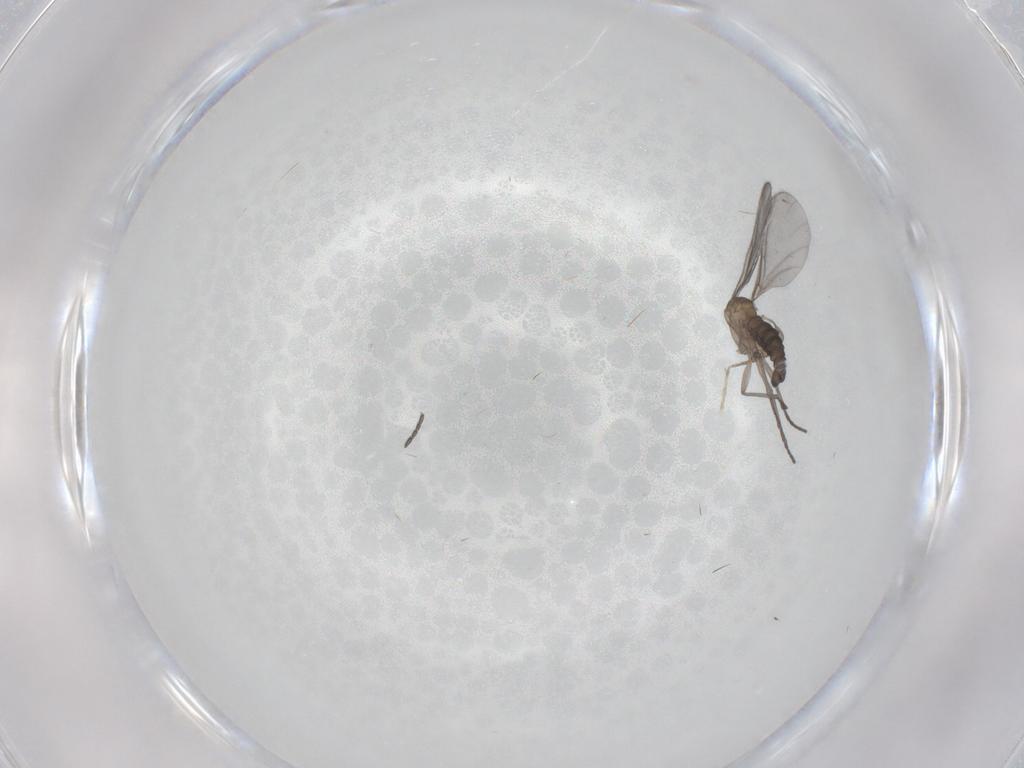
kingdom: Animalia
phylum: Arthropoda
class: Insecta
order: Diptera
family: Sciaridae
